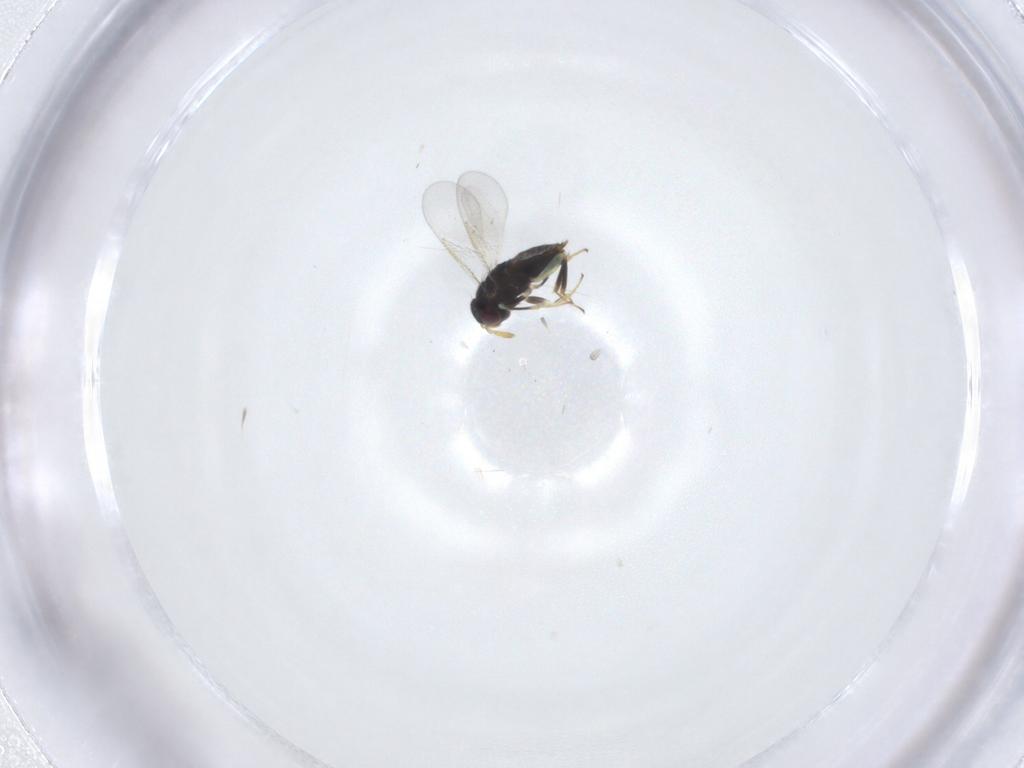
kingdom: Animalia
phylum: Arthropoda
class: Insecta
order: Hymenoptera
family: Aphelinidae
